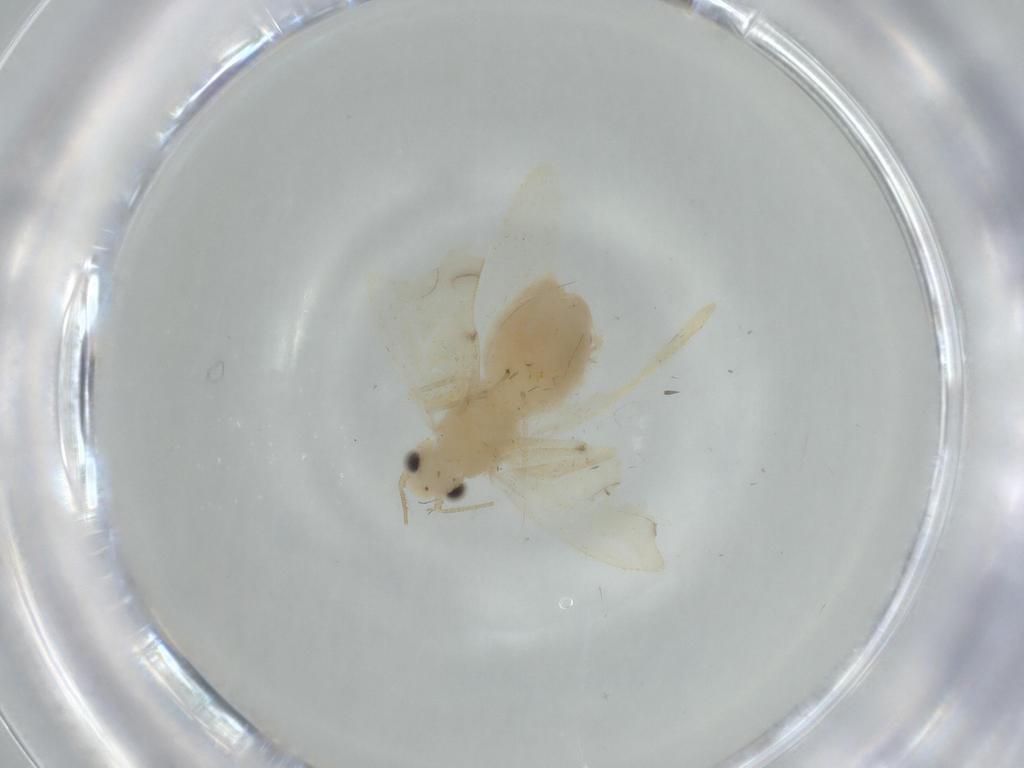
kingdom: Animalia
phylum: Arthropoda
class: Insecta
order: Psocodea
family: Caeciliusidae
